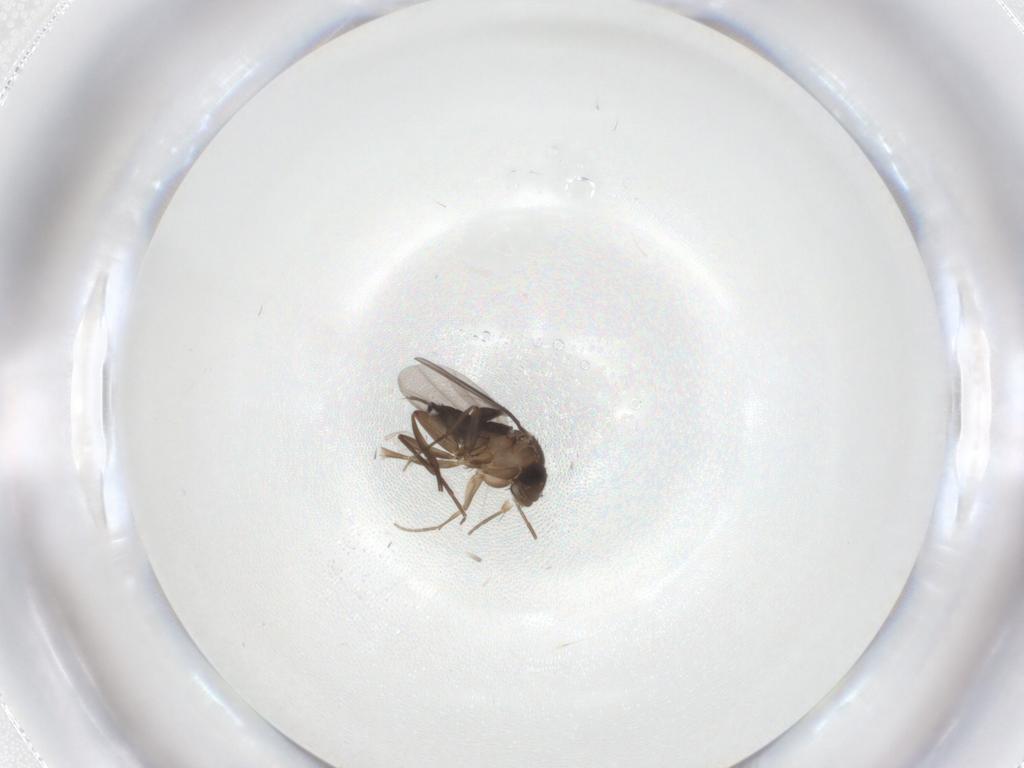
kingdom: Animalia
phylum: Arthropoda
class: Insecta
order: Diptera
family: Phoridae
